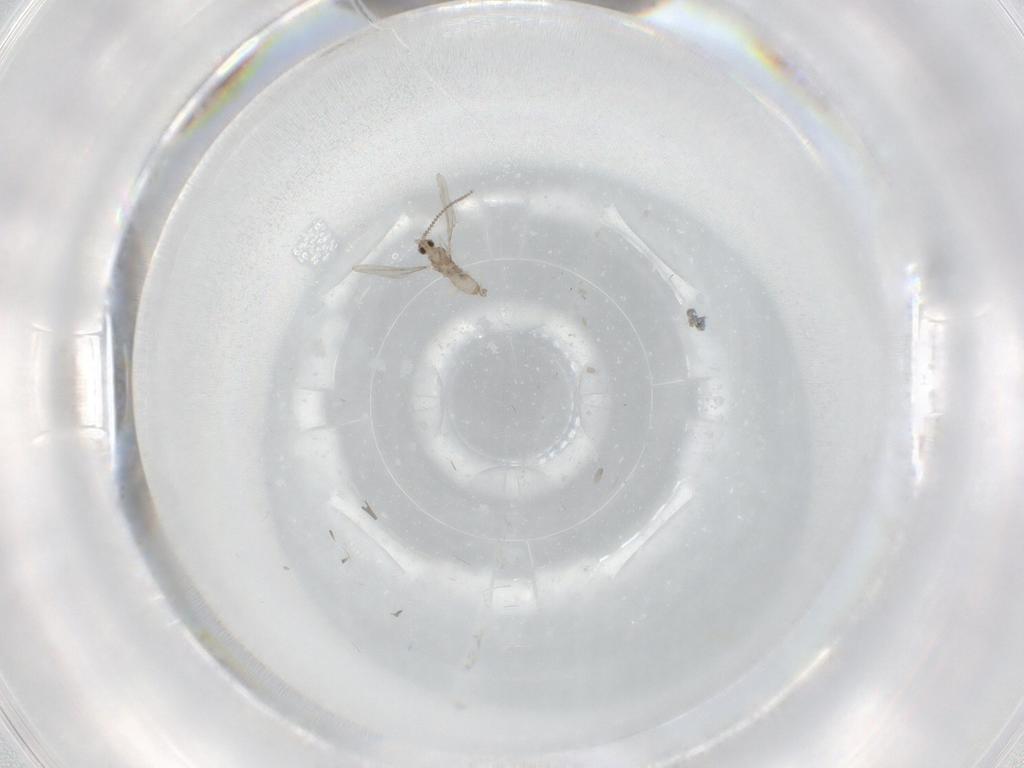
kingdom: Animalia
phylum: Arthropoda
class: Insecta
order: Diptera
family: Cecidomyiidae
